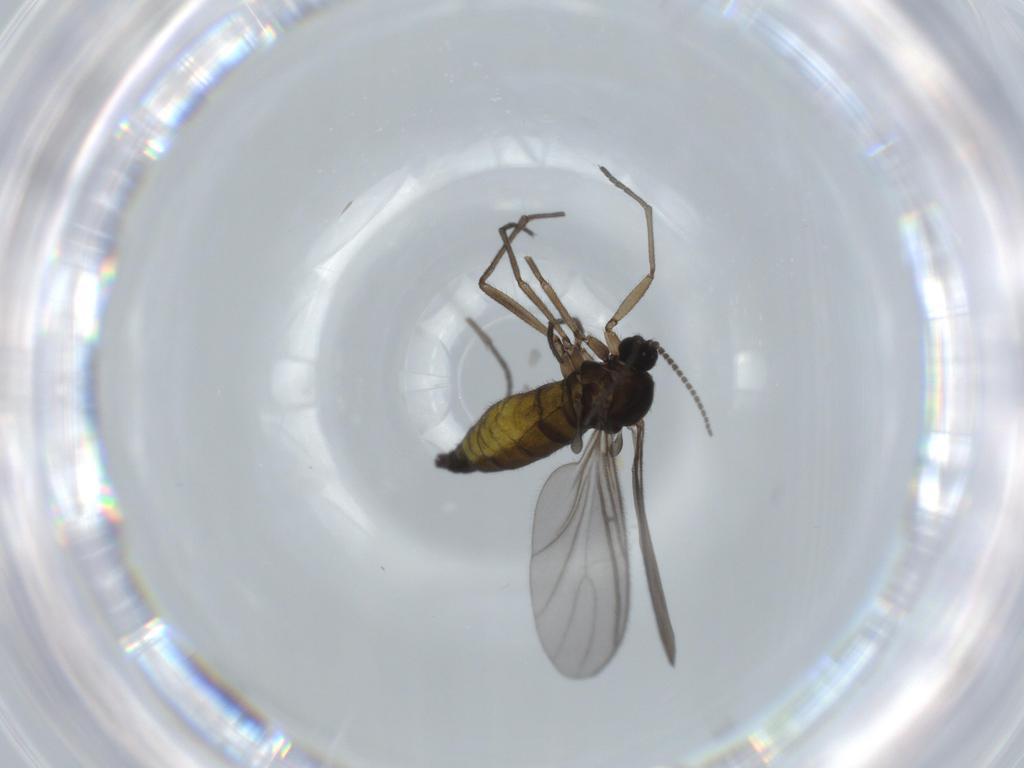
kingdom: Animalia
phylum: Arthropoda
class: Insecta
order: Diptera
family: Sciaridae
